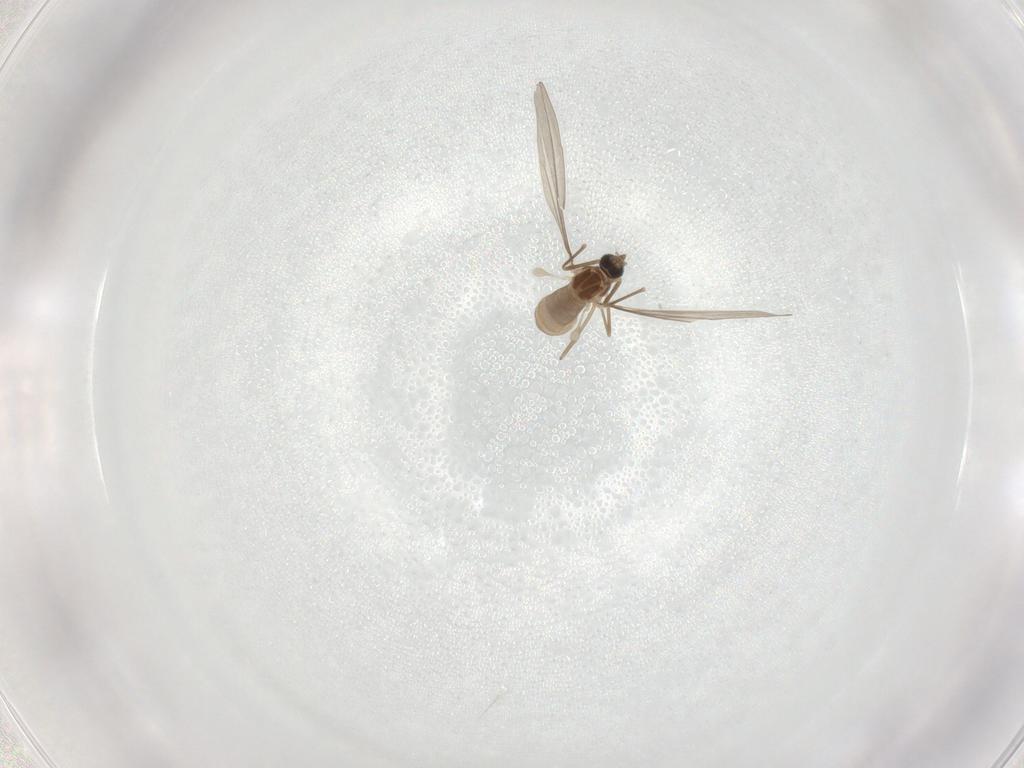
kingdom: Animalia
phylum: Arthropoda
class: Insecta
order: Diptera
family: Cecidomyiidae
